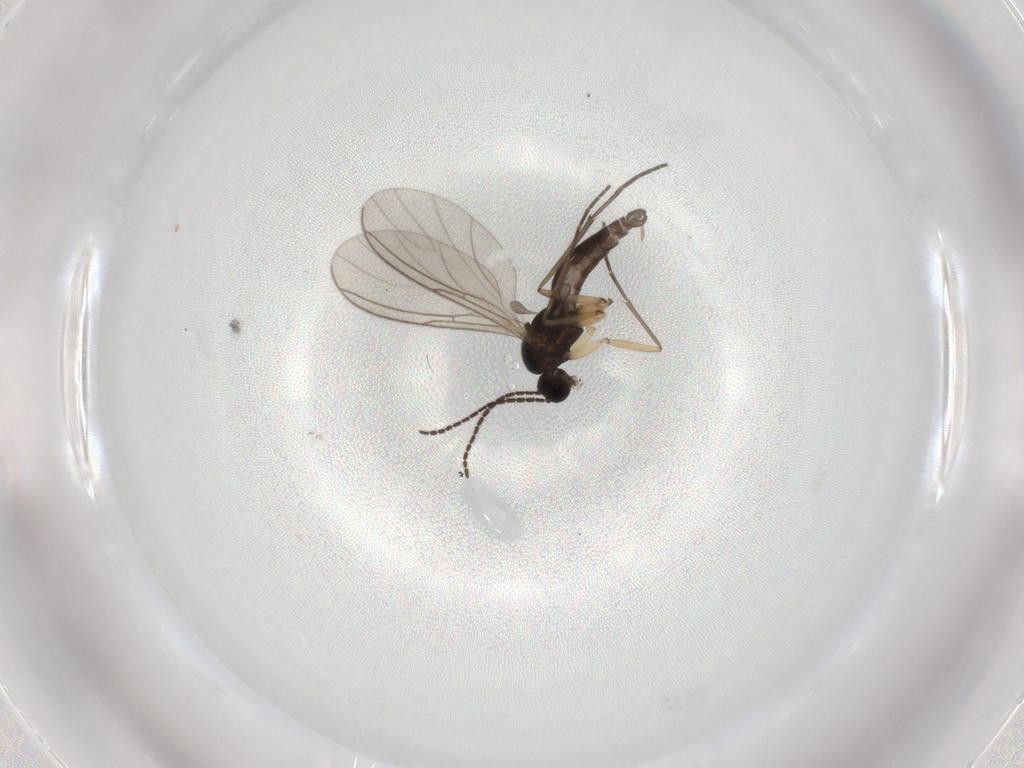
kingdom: Animalia
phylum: Arthropoda
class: Insecta
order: Diptera
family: Sciaridae
